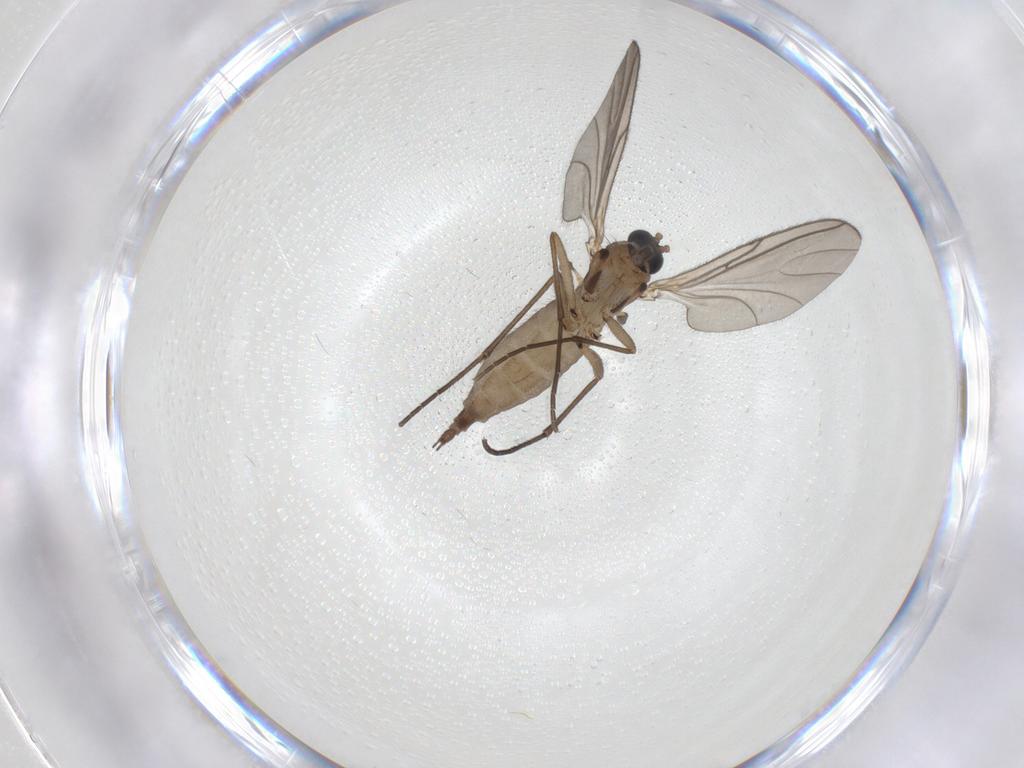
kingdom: Animalia
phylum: Arthropoda
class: Insecta
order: Diptera
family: Sciaridae
